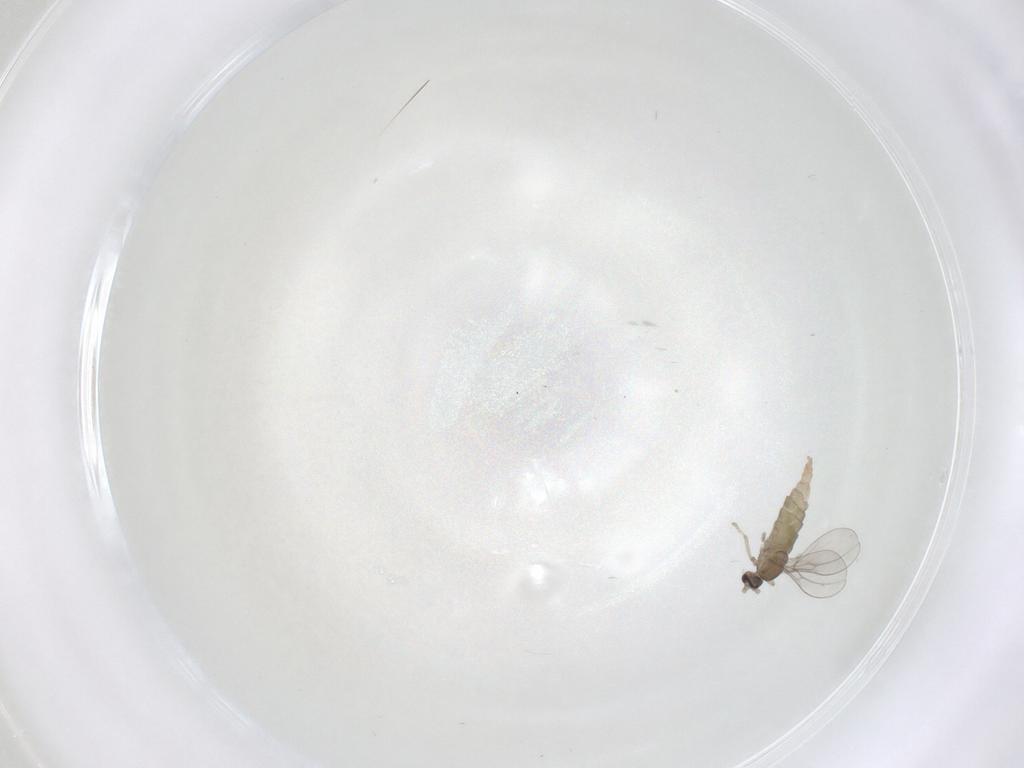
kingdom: Animalia
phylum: Arthropoda
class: Insecta
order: Diptera
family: Cecidomyiidae
